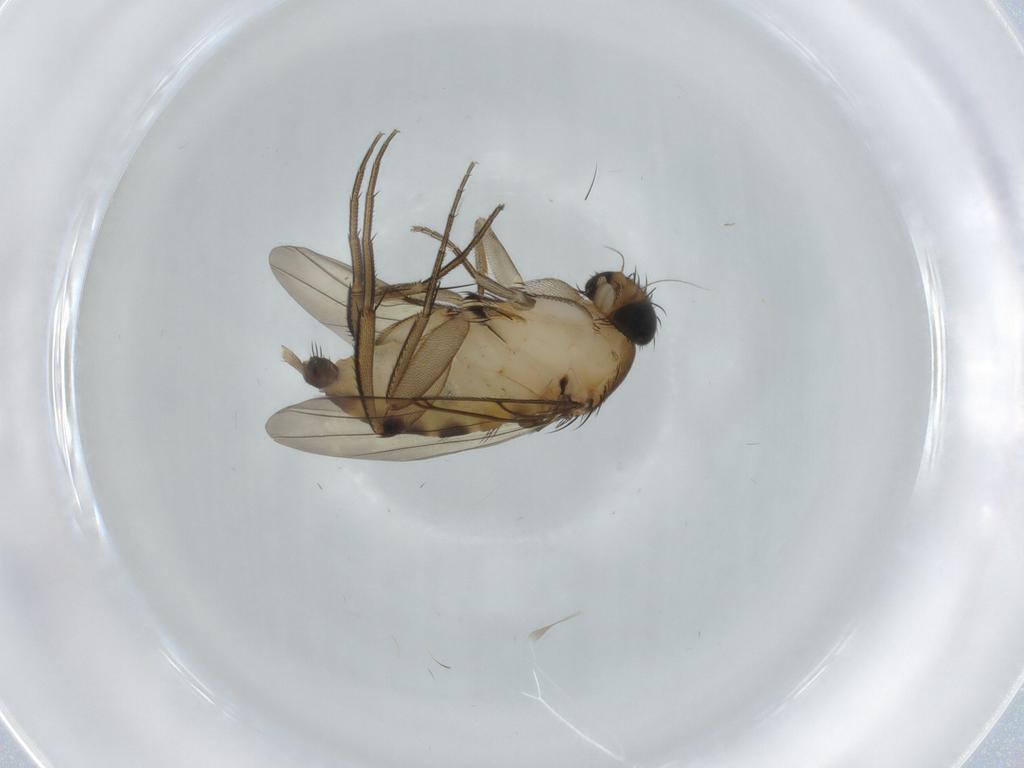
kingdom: Animalia
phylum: Arthropoda
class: Insecta
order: Diptera
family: Phoridae
